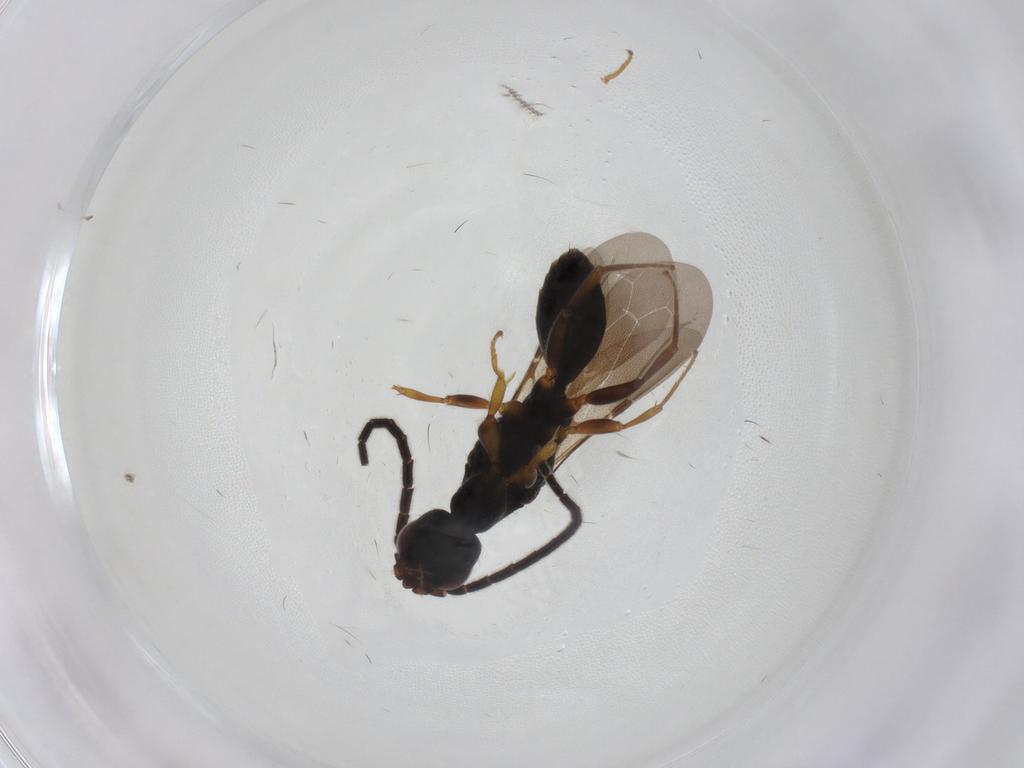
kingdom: Animalia
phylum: Arthropoda
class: Insecta
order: Hymenoptera
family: Bethylidae
